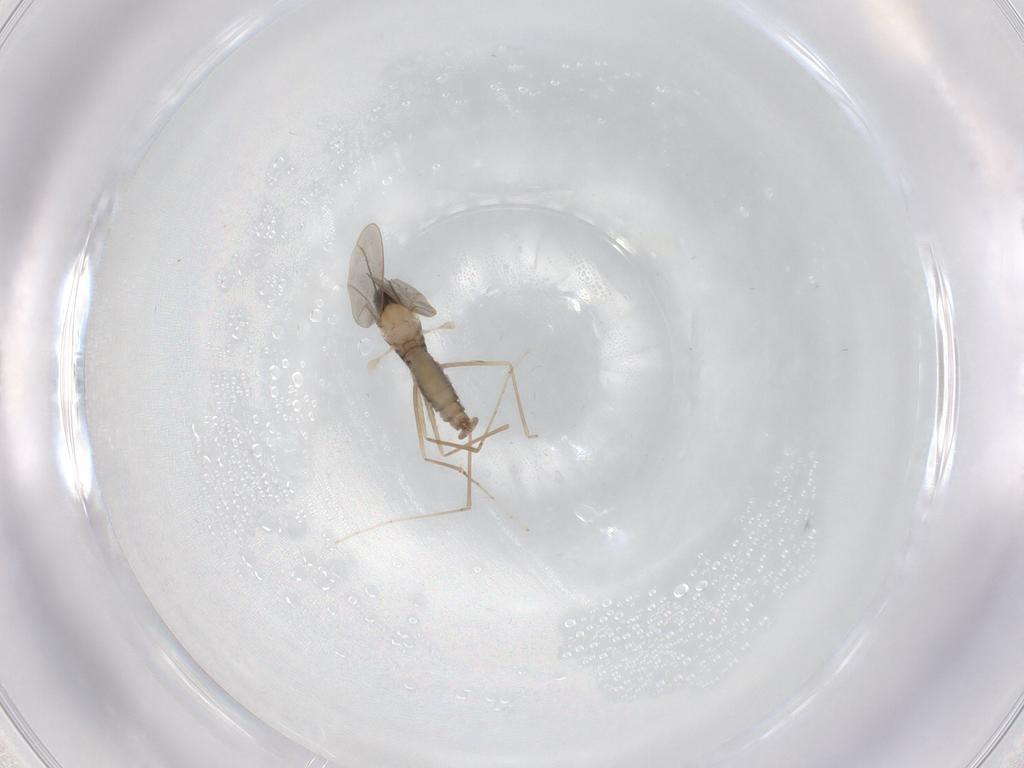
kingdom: Animalia
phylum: Arthropoda
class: Insecta
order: Diptera
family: Cecidomyiidae
